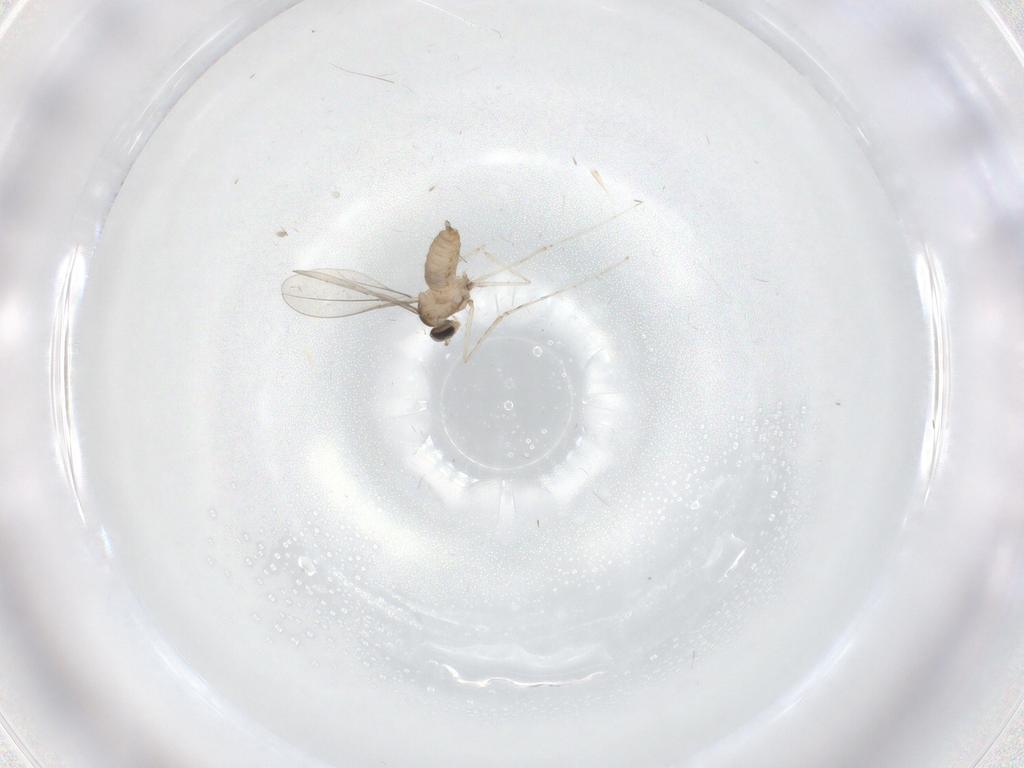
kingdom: Animalia
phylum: Arthropoda
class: Insecta
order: Diptera
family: Cecidomyiidae
